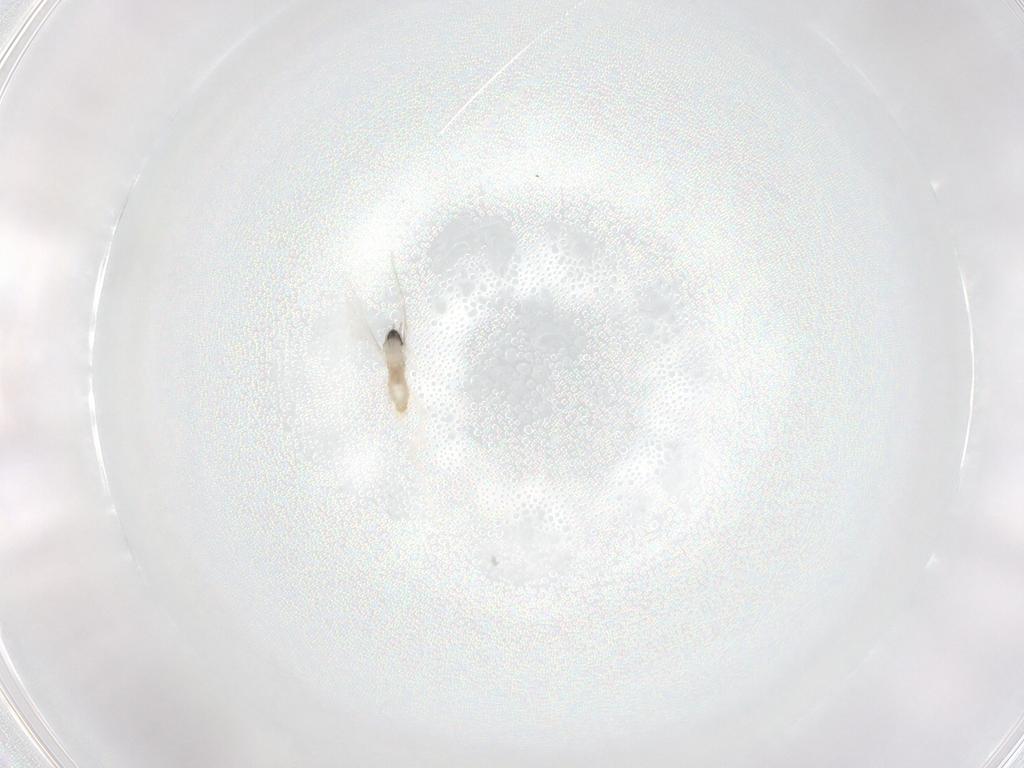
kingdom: Animalia
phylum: Arthropoda
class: Insecta
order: Diptera
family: Cecidomyiidae
